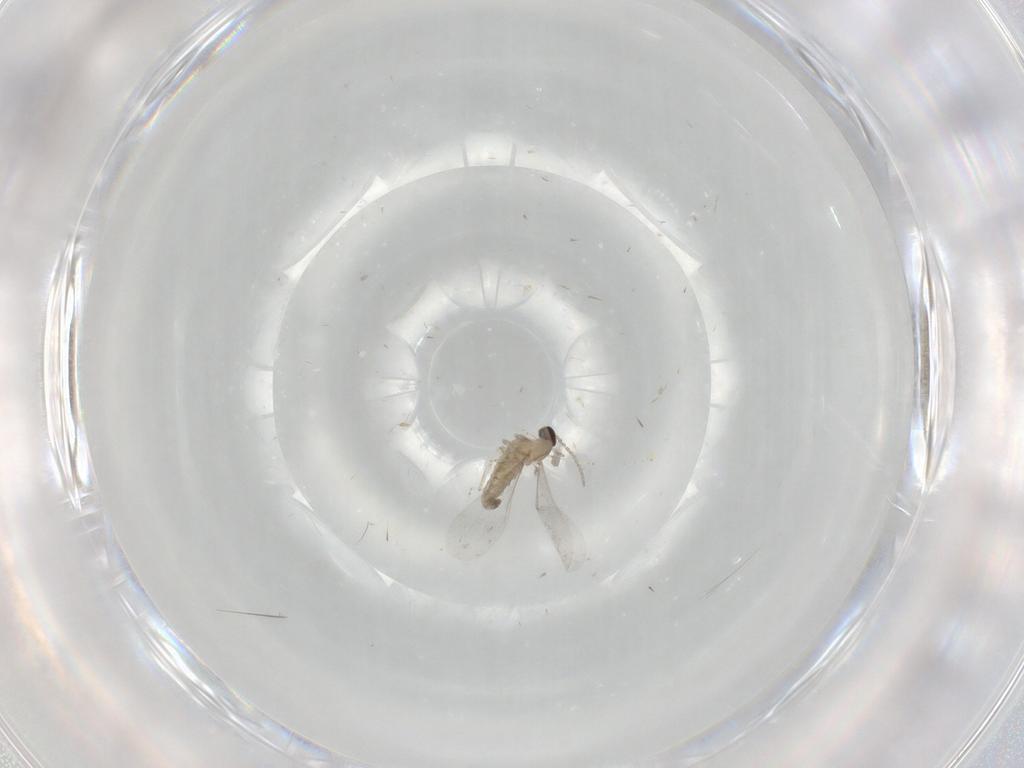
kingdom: Animalia
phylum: Arthropoda
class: Insecta
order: Diptera
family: Cecidomyiidae
